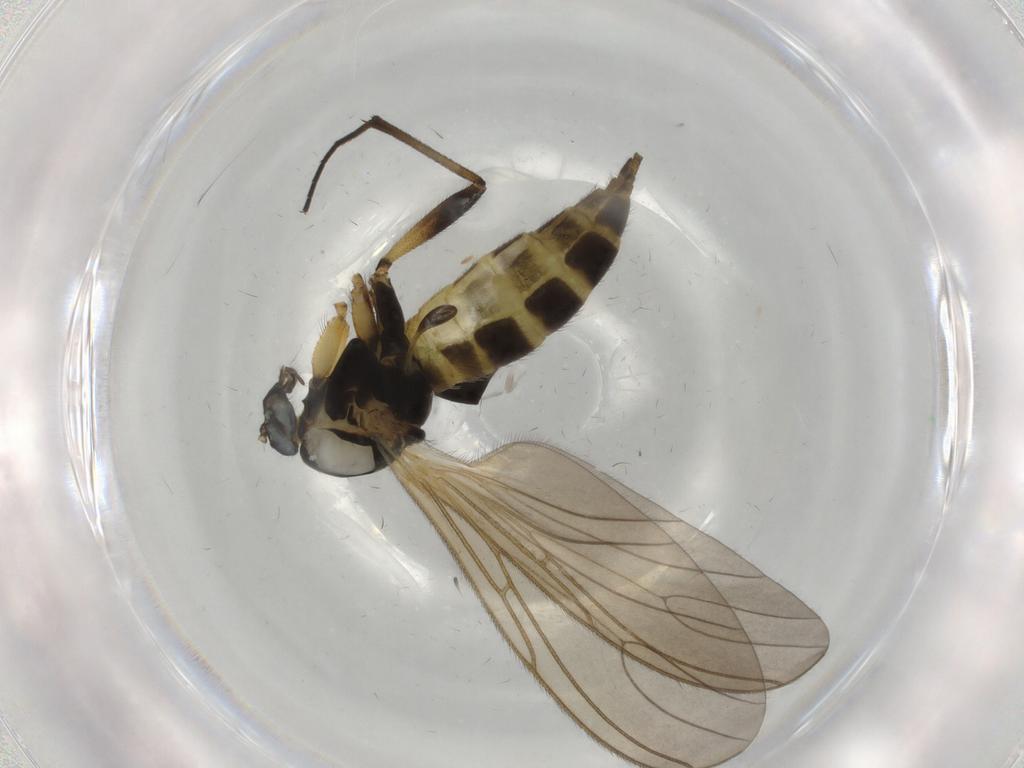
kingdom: Animalia
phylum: Arthropoda
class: Insecta
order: Diptera
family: Sciaridae
